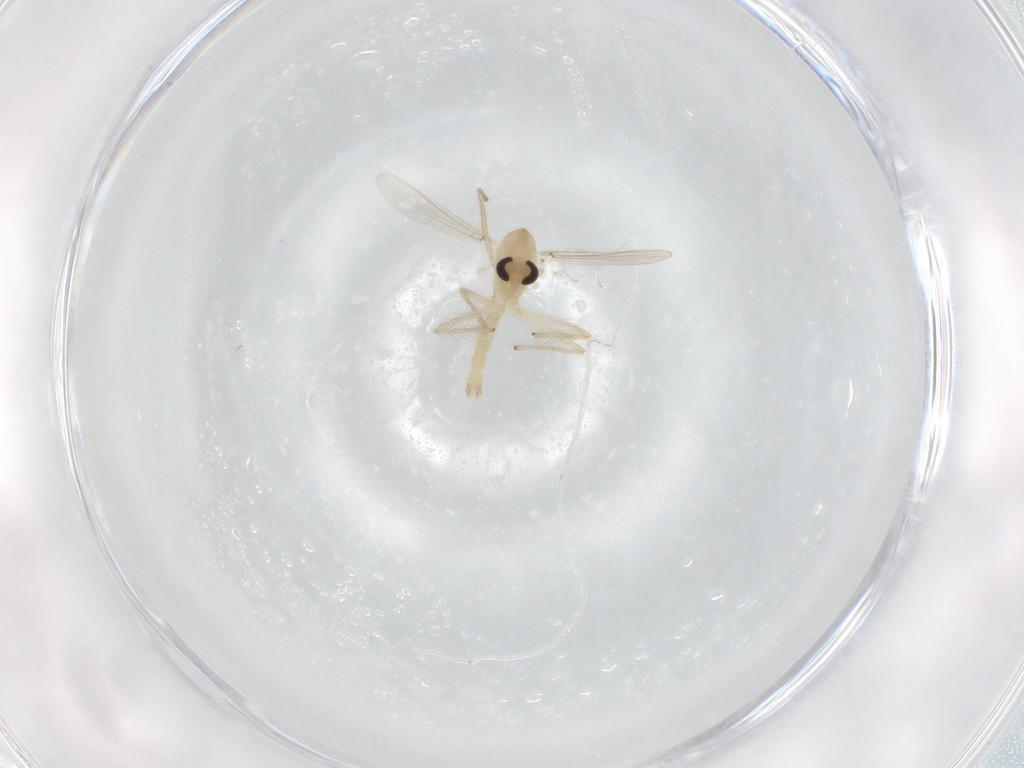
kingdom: Animalia
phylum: Arthropoda
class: Insecta
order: Diptera
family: Chironomidae
